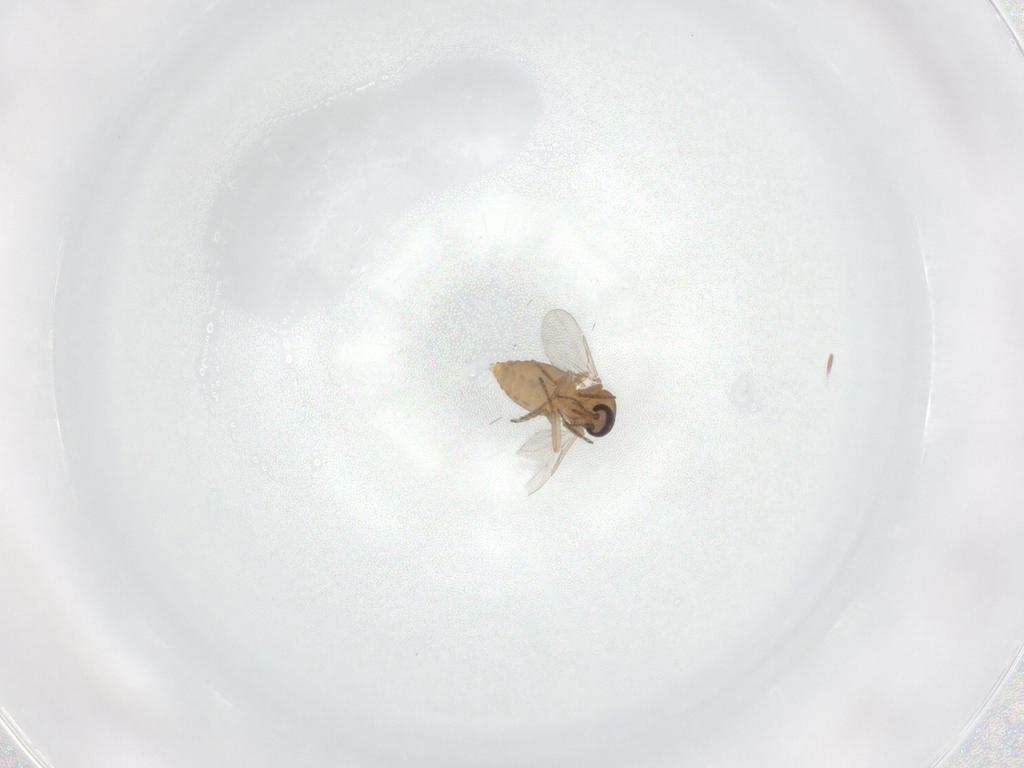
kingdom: Animalia
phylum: Arthropoda
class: Insecta
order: Diptera
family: Ceratopogonidae
